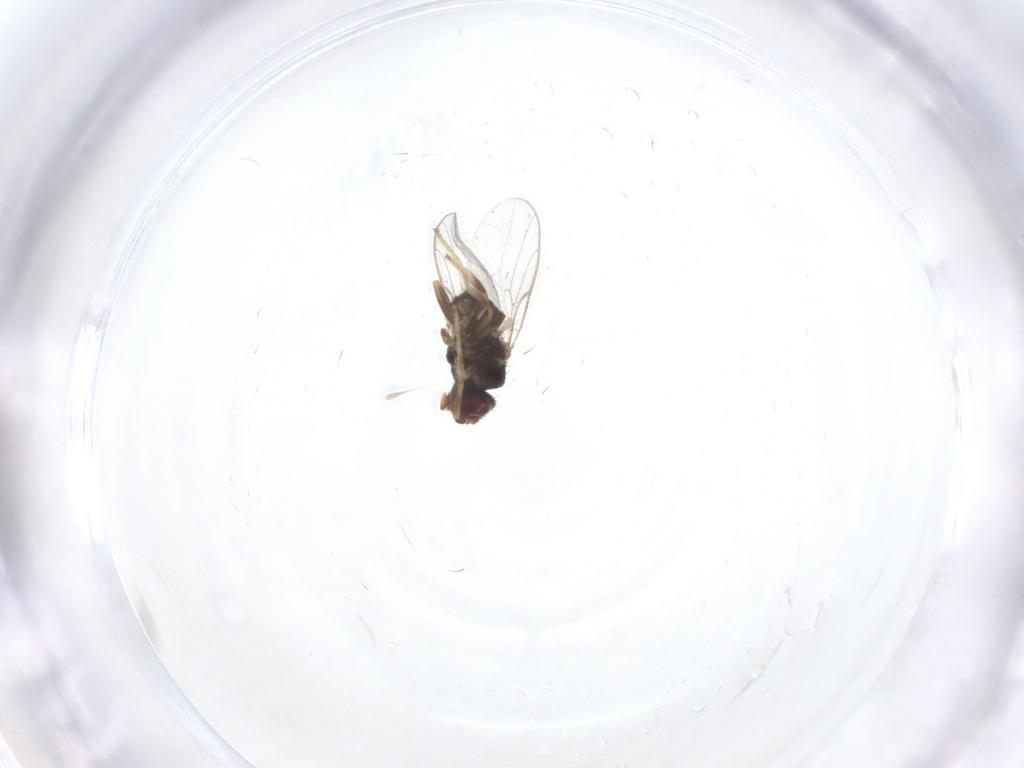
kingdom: Animalia
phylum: Arthropoda
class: Insecta
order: Diptera
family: Chloropidae
